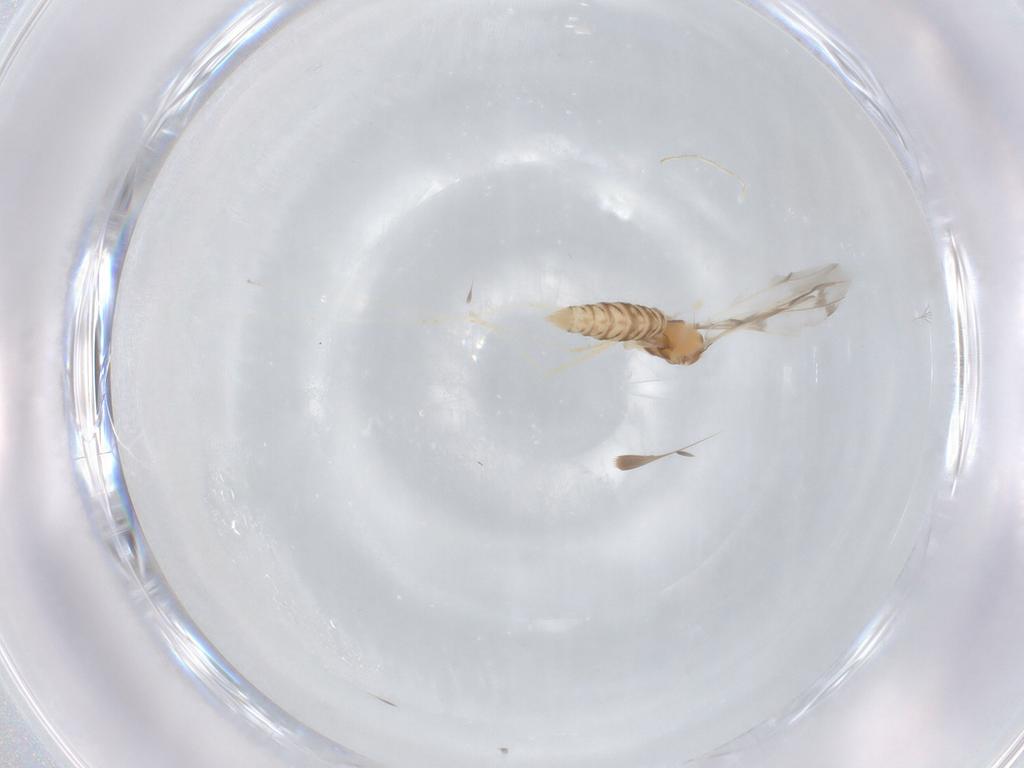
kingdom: Animalia
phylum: Arthropoda
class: Insecta
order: Diptera
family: Cecidomyiidae
